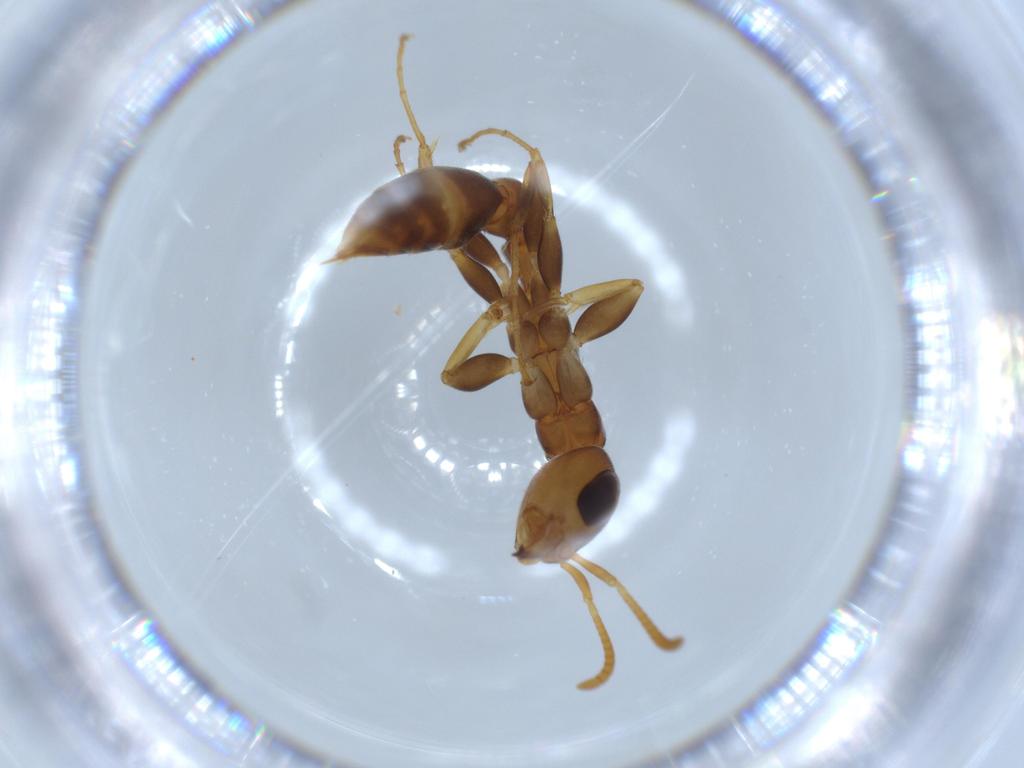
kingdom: Animalia
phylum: Arthropoda
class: Insecta
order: Hymenoptera
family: Formicidae
